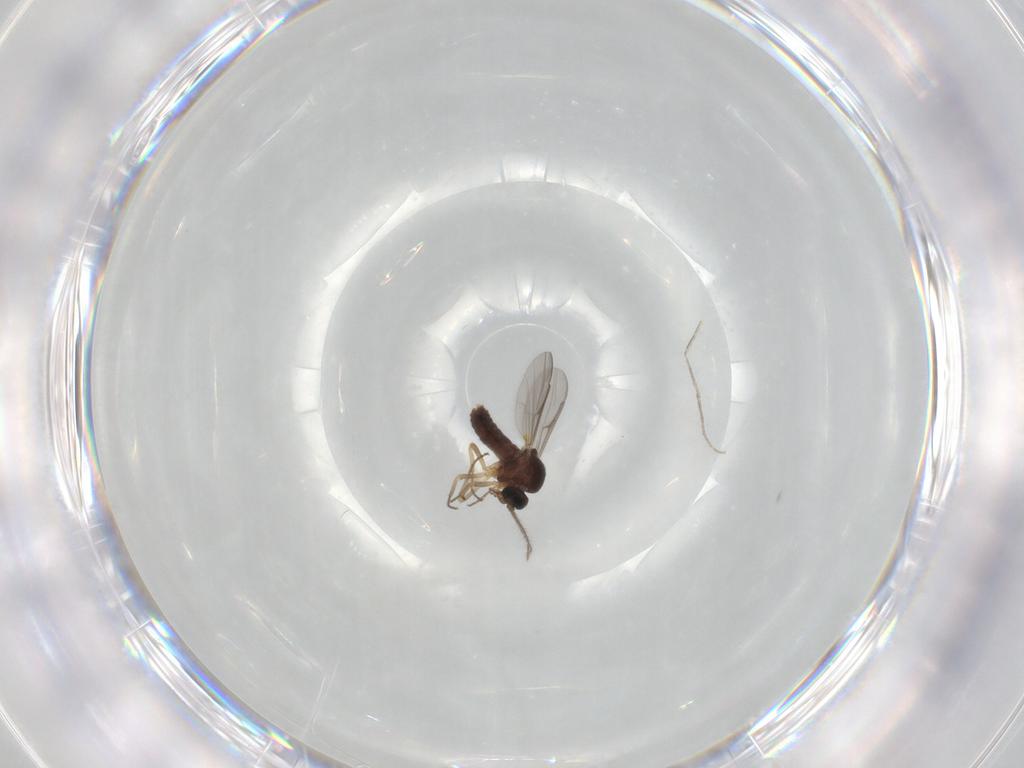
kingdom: Animalia
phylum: Arthropoda
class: Insecta
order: Diptera
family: Ceratopogonidae
